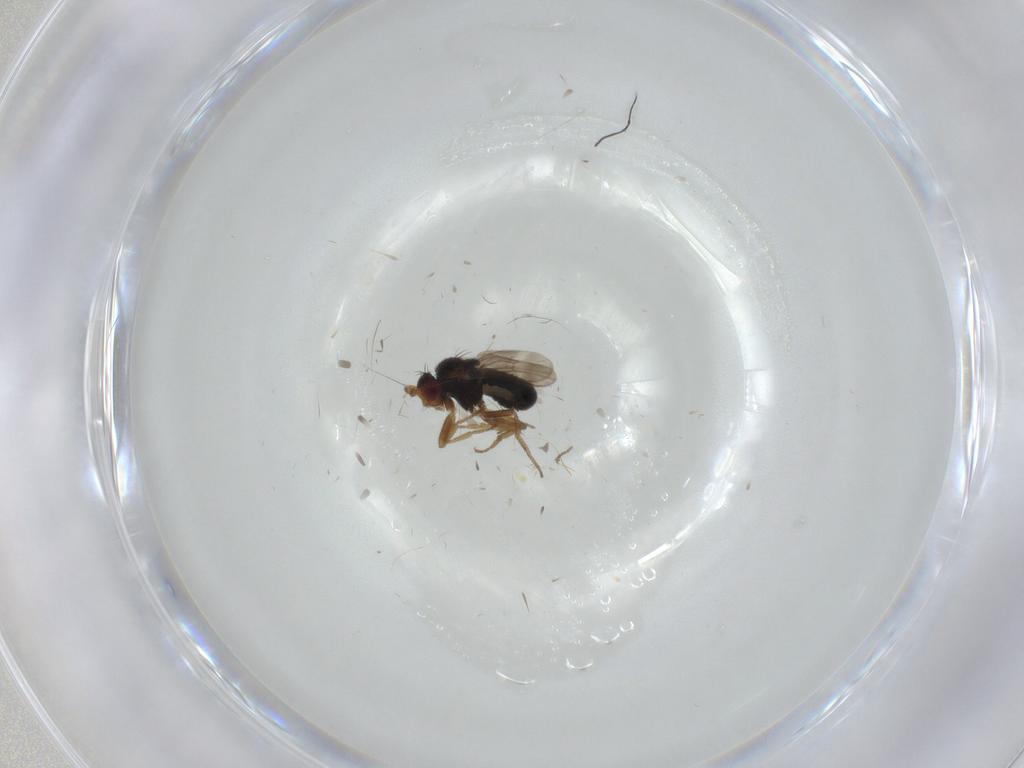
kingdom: Animalia
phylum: Arthropoda
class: Insecta
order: Diptera
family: Sphaeroceridae
